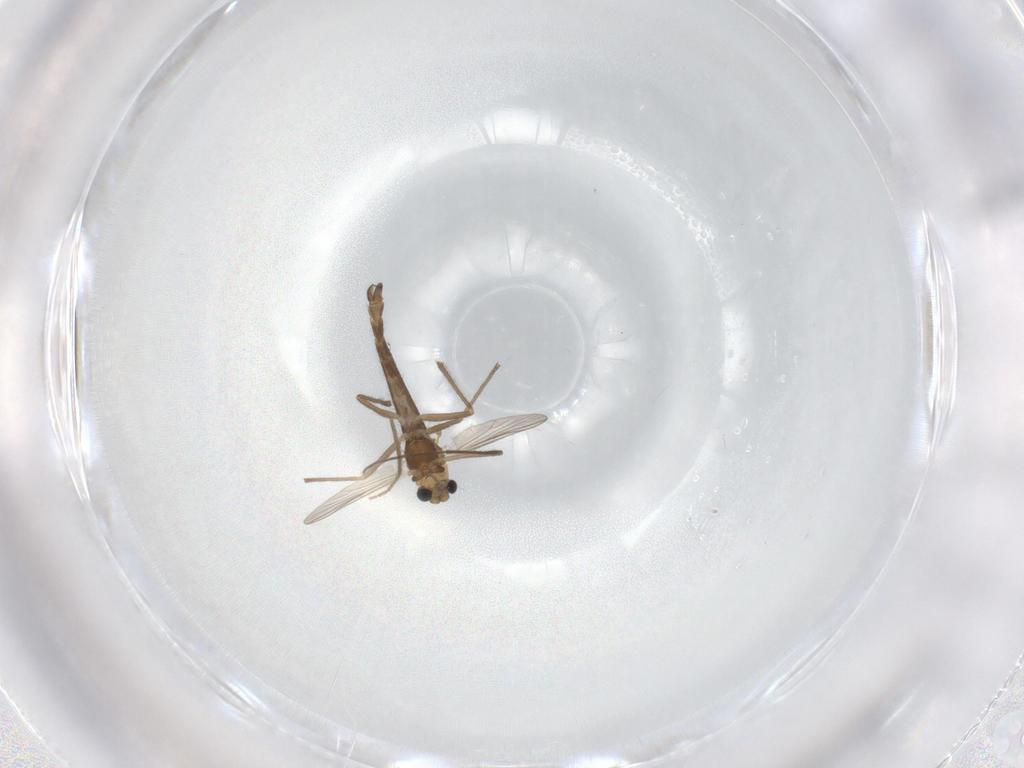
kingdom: Animalia
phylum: Arthropoda
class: Insecta
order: Diptera
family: Chironomidae
